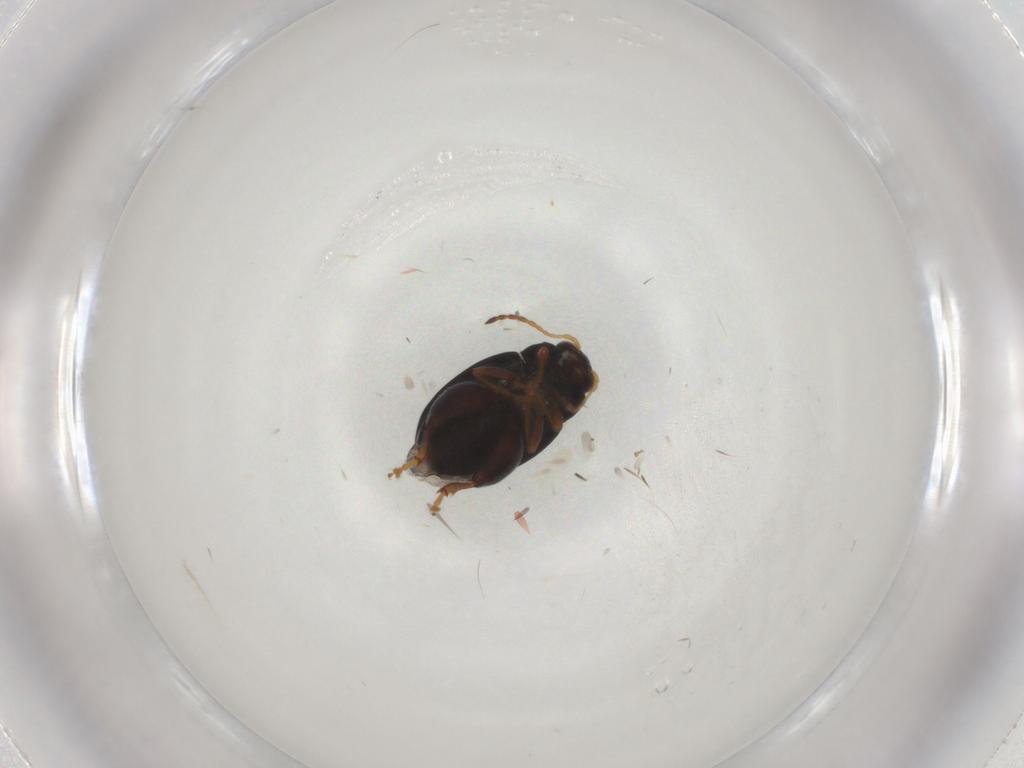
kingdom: Animalia
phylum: Arthropoda
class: Insecta
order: Coleoptera
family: Chrysomelidae
